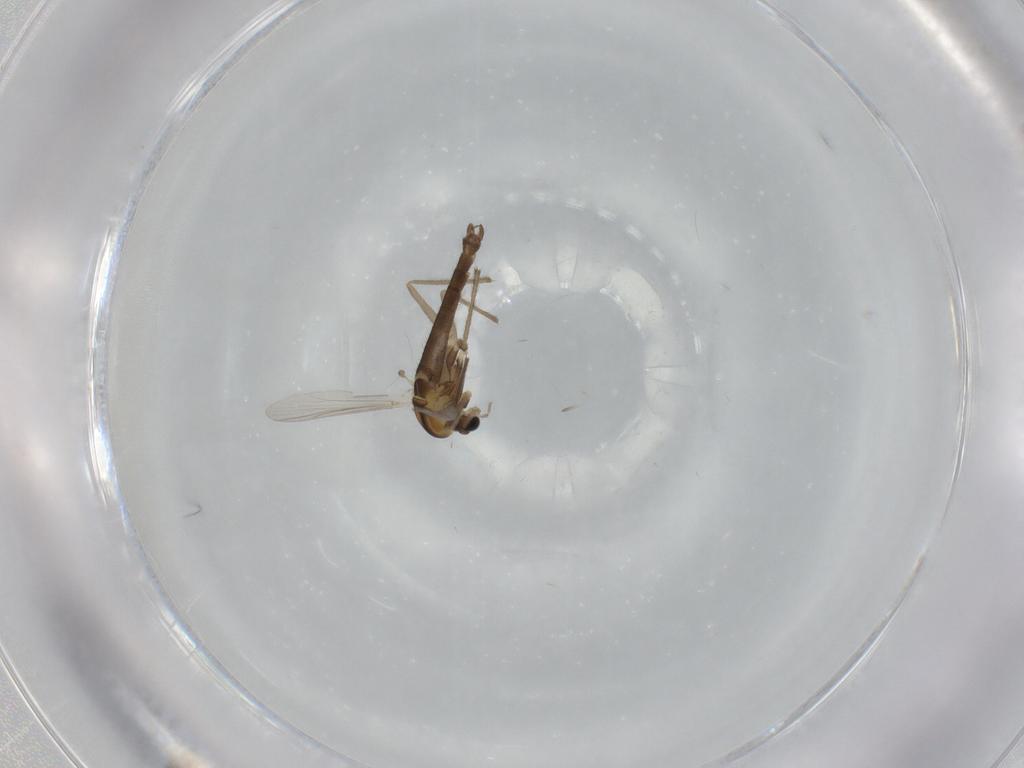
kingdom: Animalia
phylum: Arthropoda
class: Insecta
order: Diptera
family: Chironomidae
